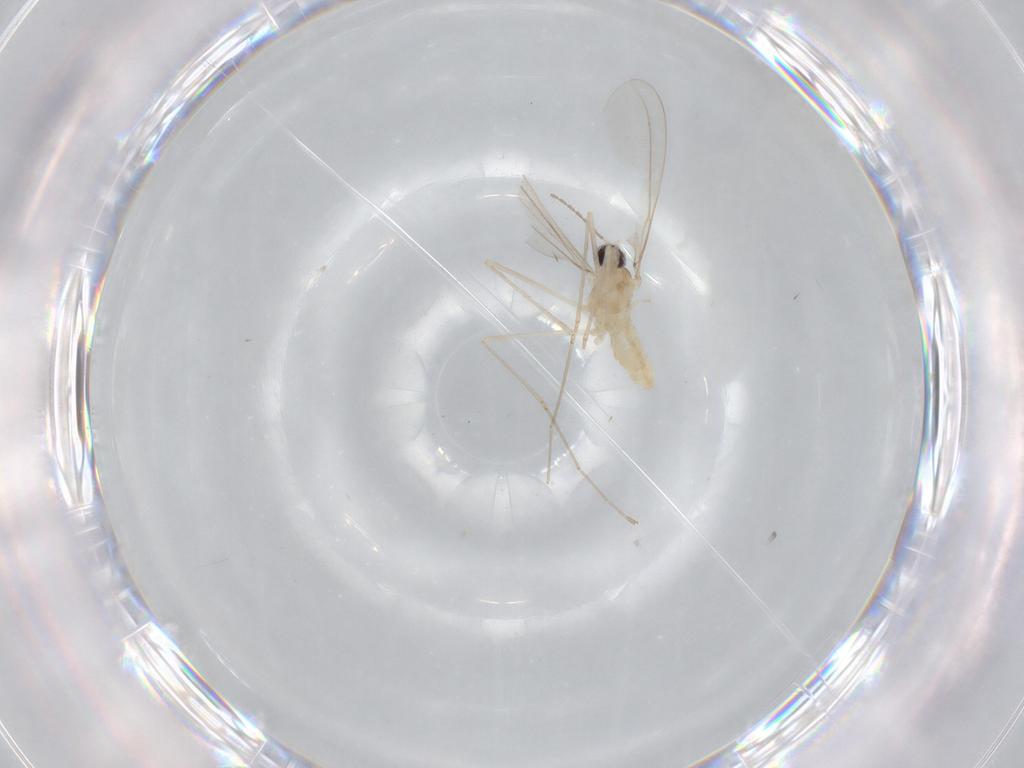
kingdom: Animalia
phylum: Arthropoda
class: Insecta
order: Diptera
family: Cecidomyiidae
